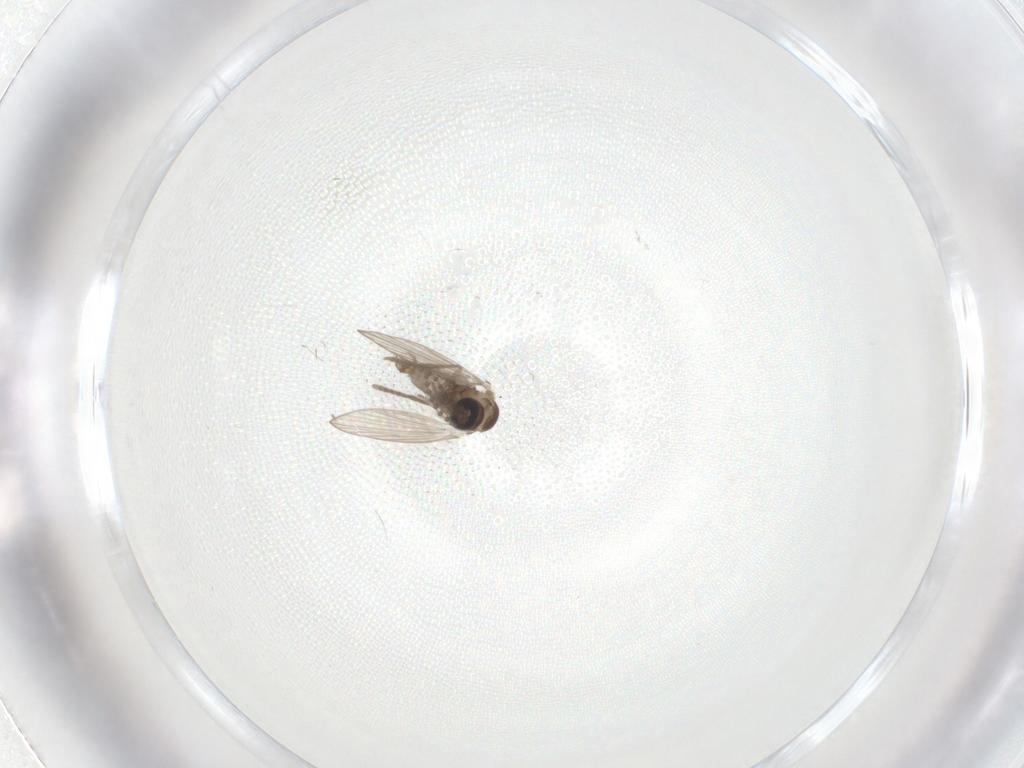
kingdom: Animalia
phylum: Arthropoda
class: Insecta
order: Diptera
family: Psychodidae
